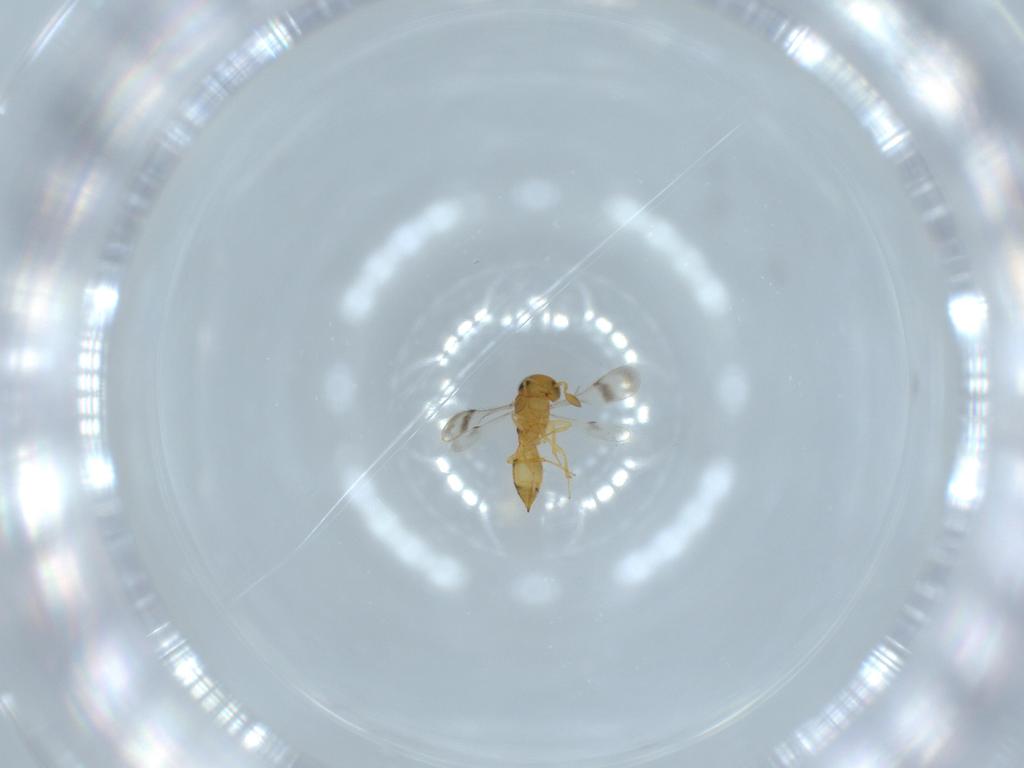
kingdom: Animalia
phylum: Arthropoda
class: Insecta
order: Hymenoptera
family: Scelionidae
